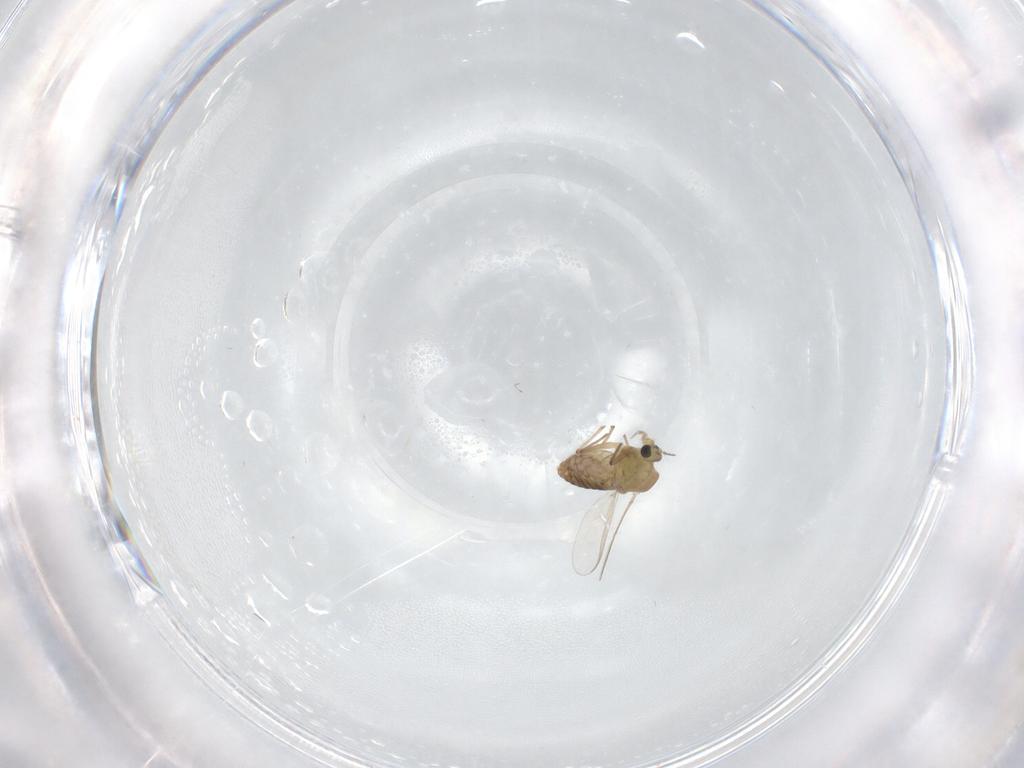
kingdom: Animalia
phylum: Arthropoda
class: Insecta
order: Diptera
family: Chironomidae
